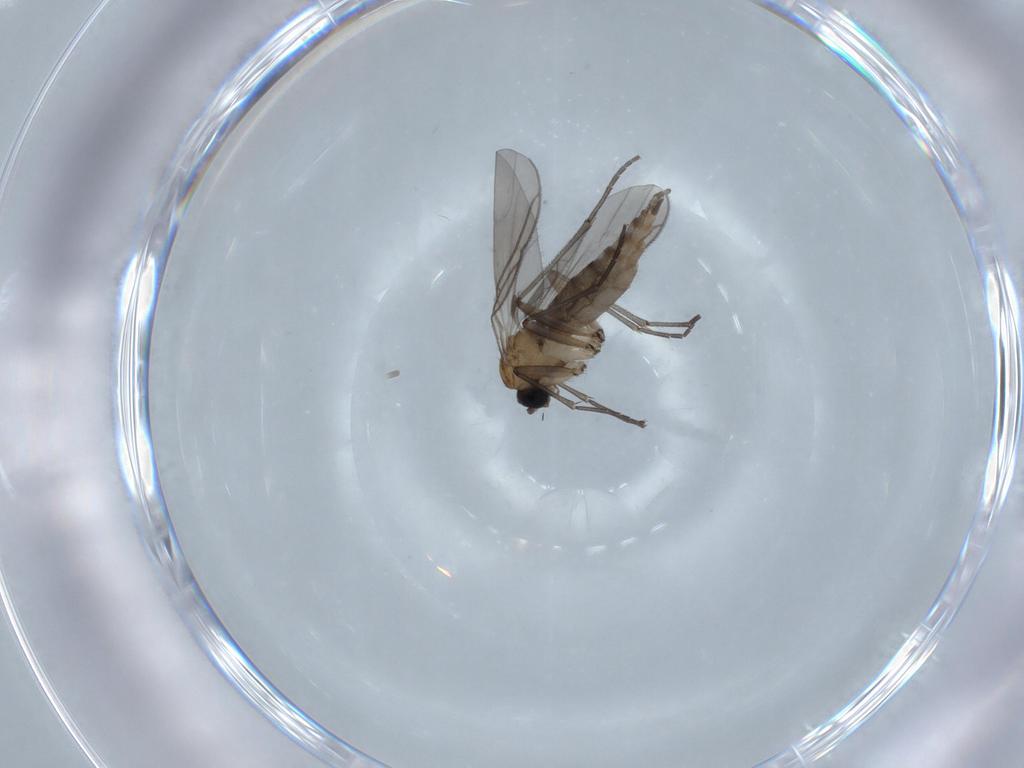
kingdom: Animalia
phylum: Arthropoda
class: Insecta
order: Diptera
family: Sciaridae
